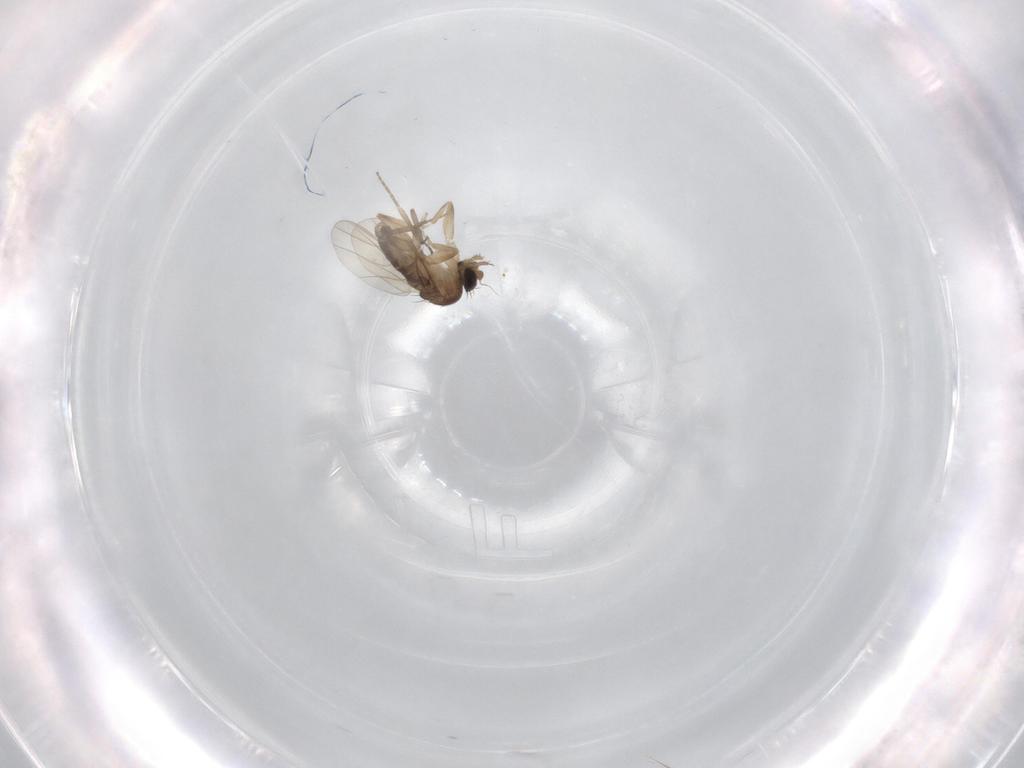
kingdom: Animalia
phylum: Arthropoda
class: Insecta
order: Diptera
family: Phoridae
